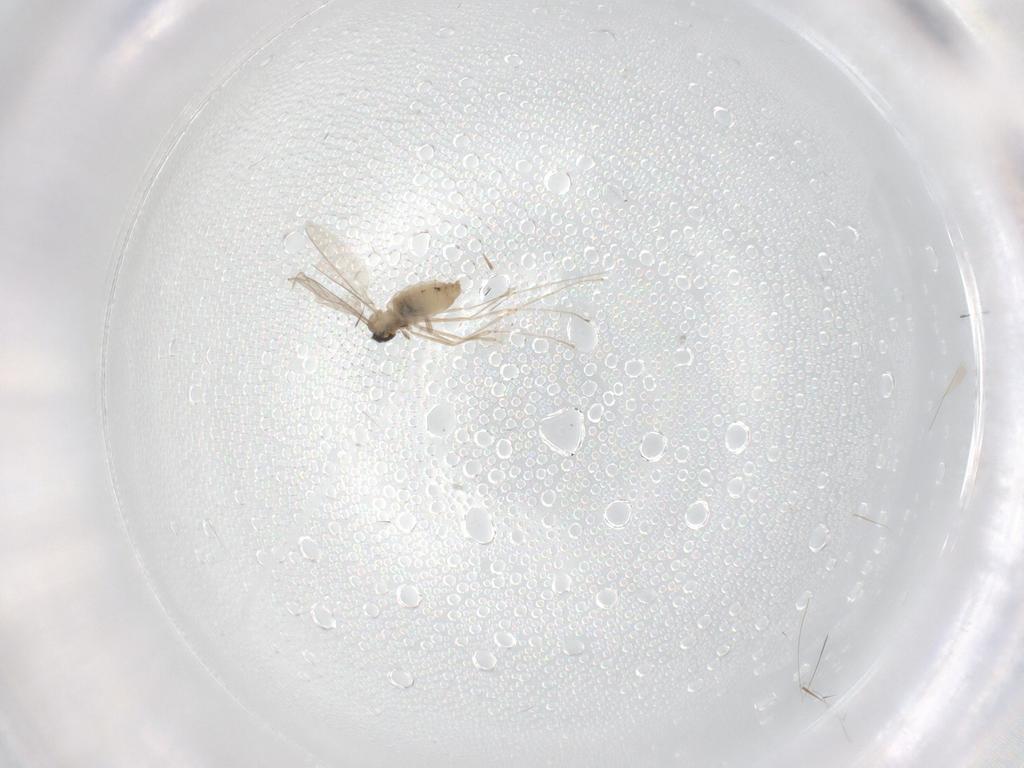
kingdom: Animalia
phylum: Arthropoda
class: Insecta
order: Diptera
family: Drosophilidae
